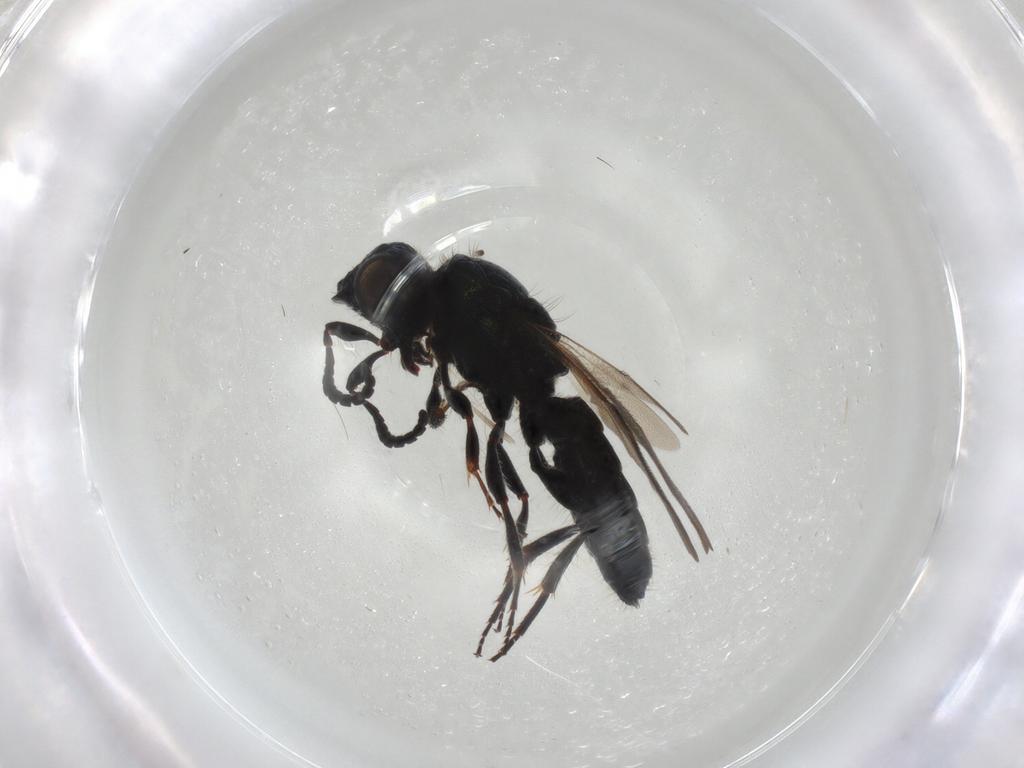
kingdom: Animalia
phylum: Arthropoda
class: Insecta
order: Hymenoptera
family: Sparasionidae
